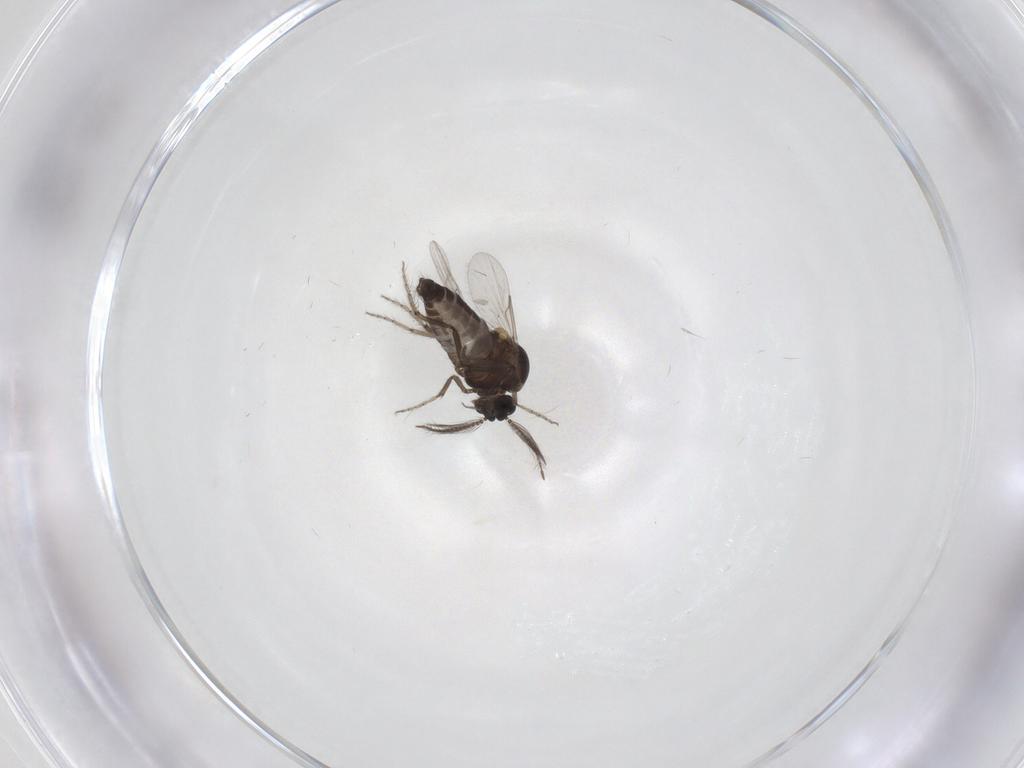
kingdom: Animalia
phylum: Arthropoda
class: Insecta
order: Diptera
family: Ceratopogonidae
